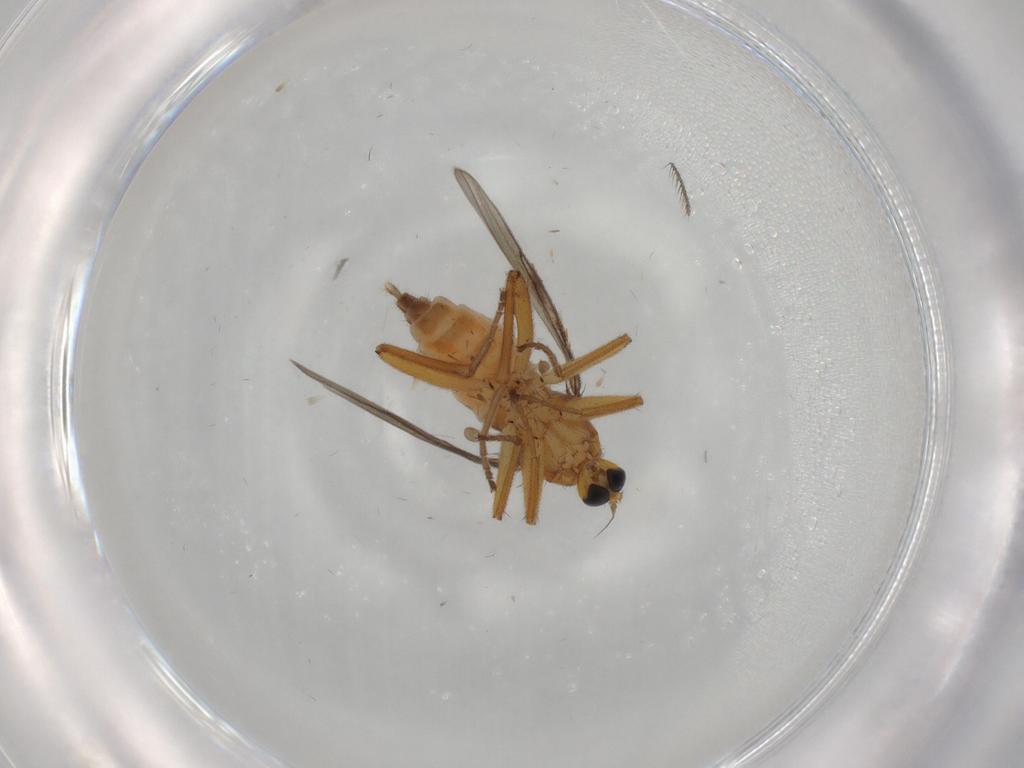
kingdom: Animalia
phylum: Arthropoda
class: Insecta
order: Diptera
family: Hybotidae
